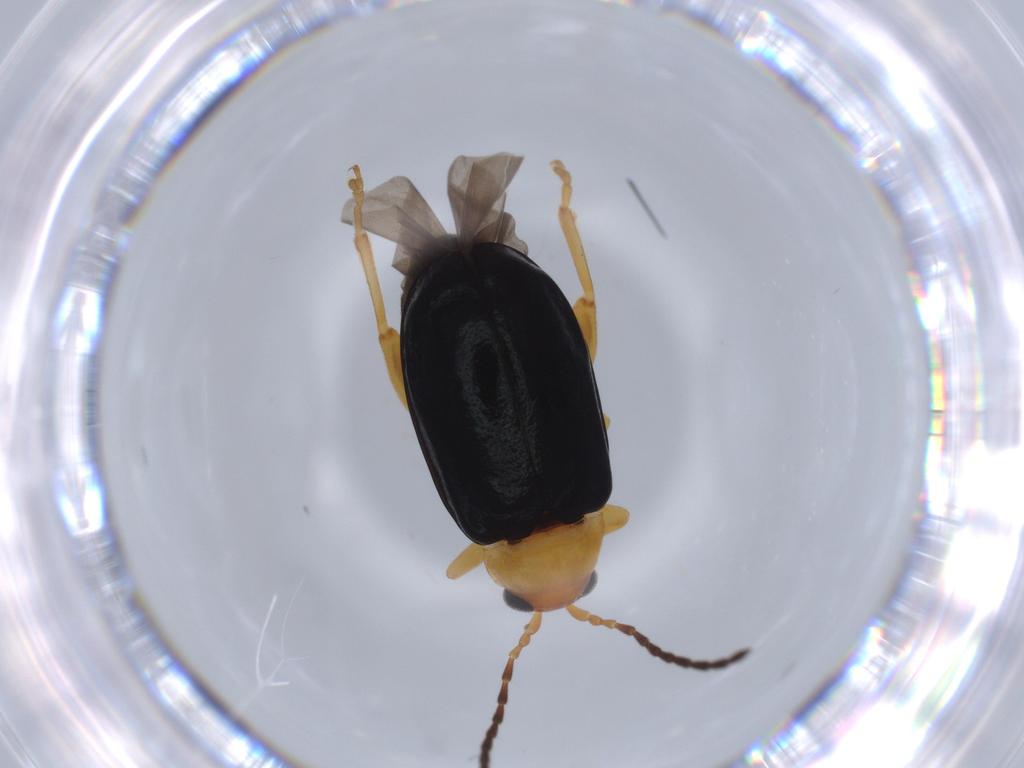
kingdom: Animalia
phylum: Arthropoda
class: Insecta
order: Coleoptera
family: Chrysomelidae
